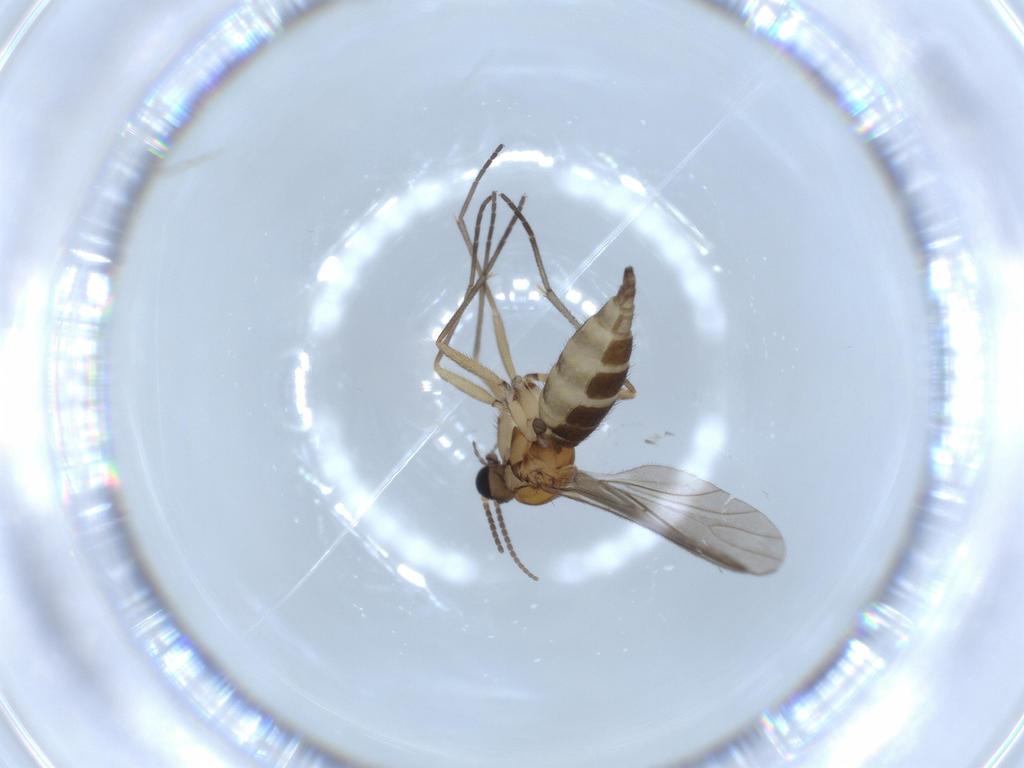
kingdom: Animalia
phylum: Arthropoda
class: Insecta
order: Diptera
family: Sciaridae
